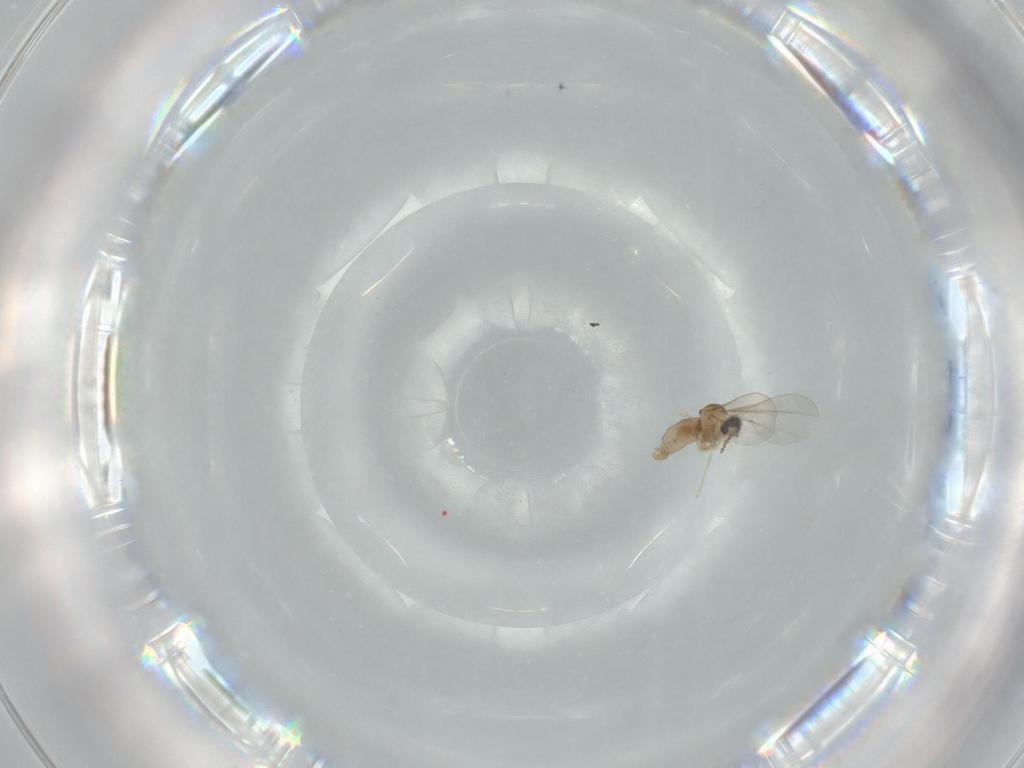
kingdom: Animalia
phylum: Arthropoda
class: Insecta
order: Diptera
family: Cecidomyiidae
